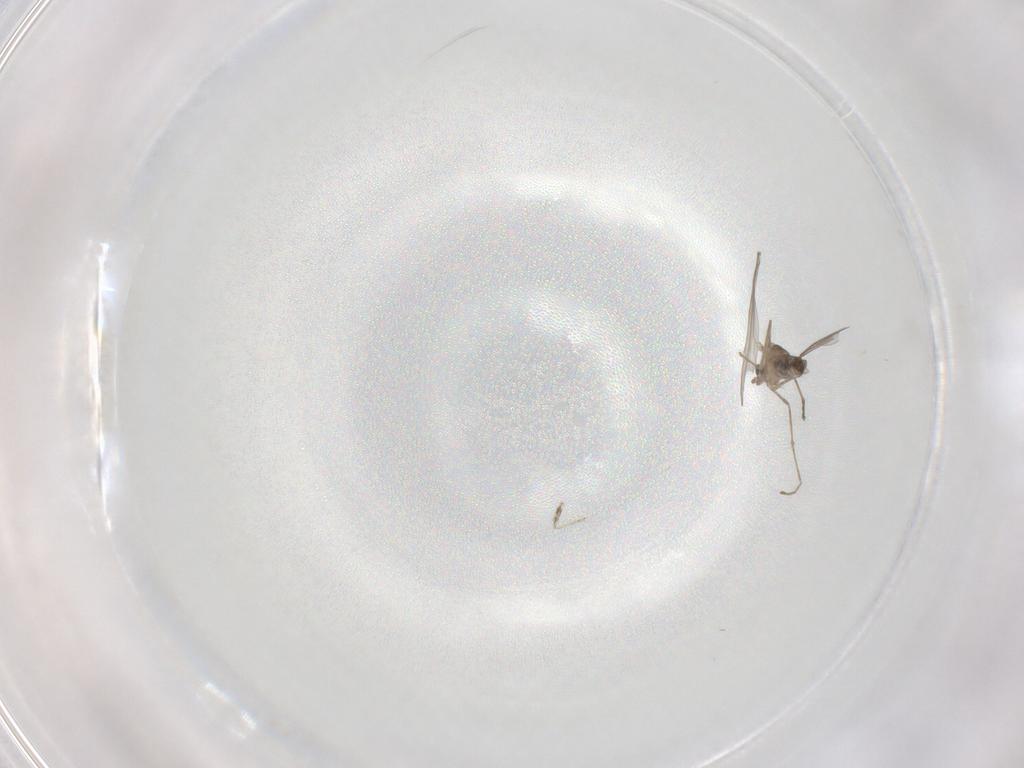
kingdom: Animalia
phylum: Arthropoda
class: Insecta
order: Diptera
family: Cecidomyiidae
